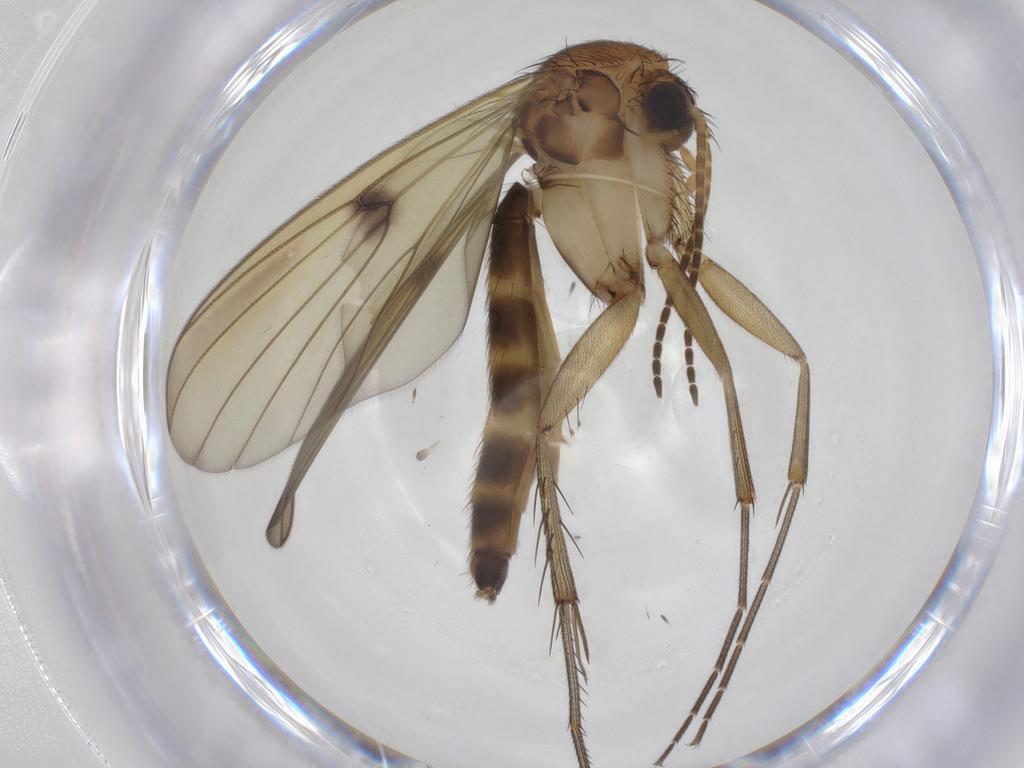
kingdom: Animalia
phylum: Arthropoda
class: Insecta
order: Diptera
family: Chironomidae
